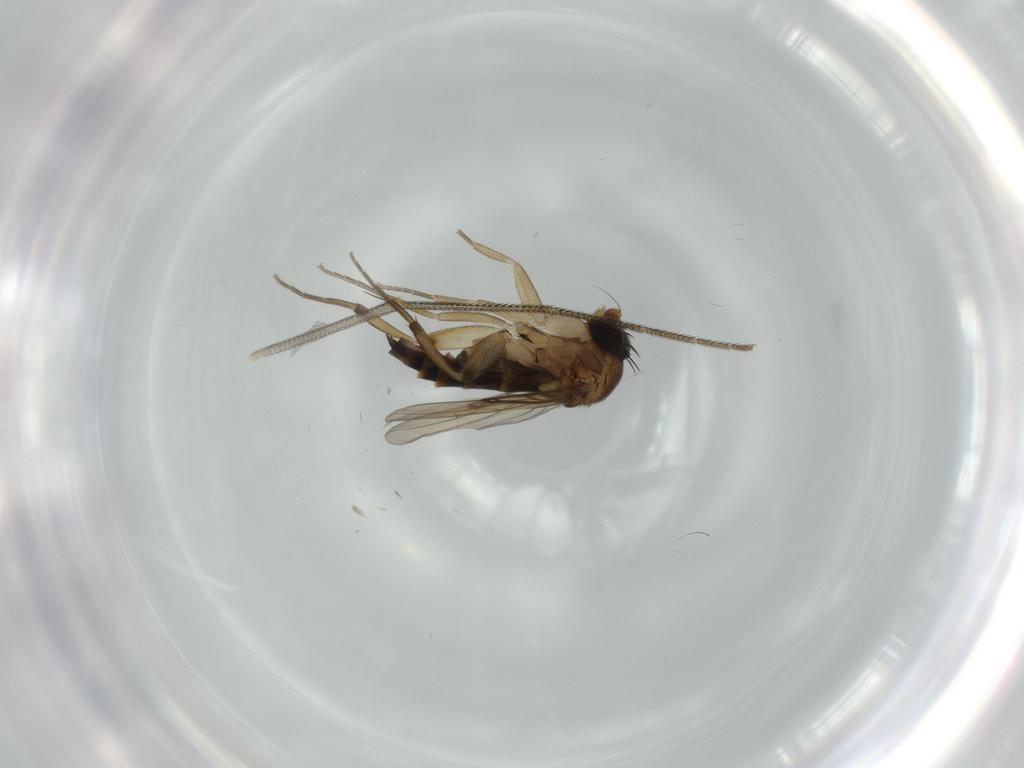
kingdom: Animalia
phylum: Arthropoda
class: Insecta
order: Diptera
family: Phoridae
